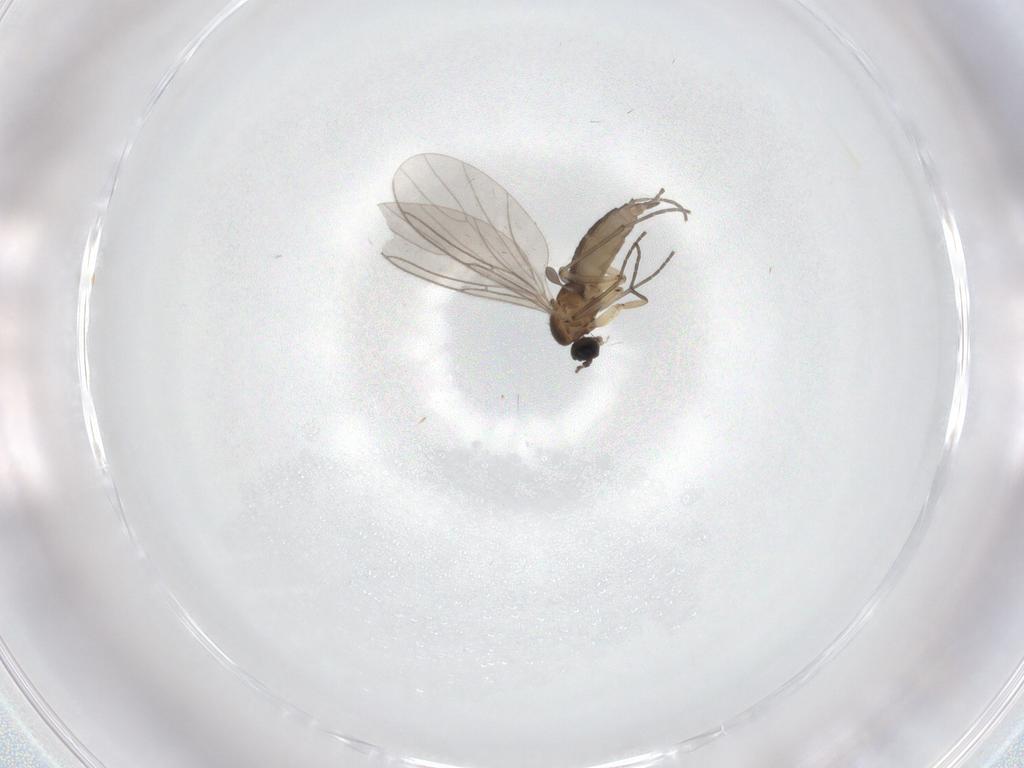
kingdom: Animalia
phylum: Arthropoda
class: Insecta
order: Diptera
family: Sciaridae
